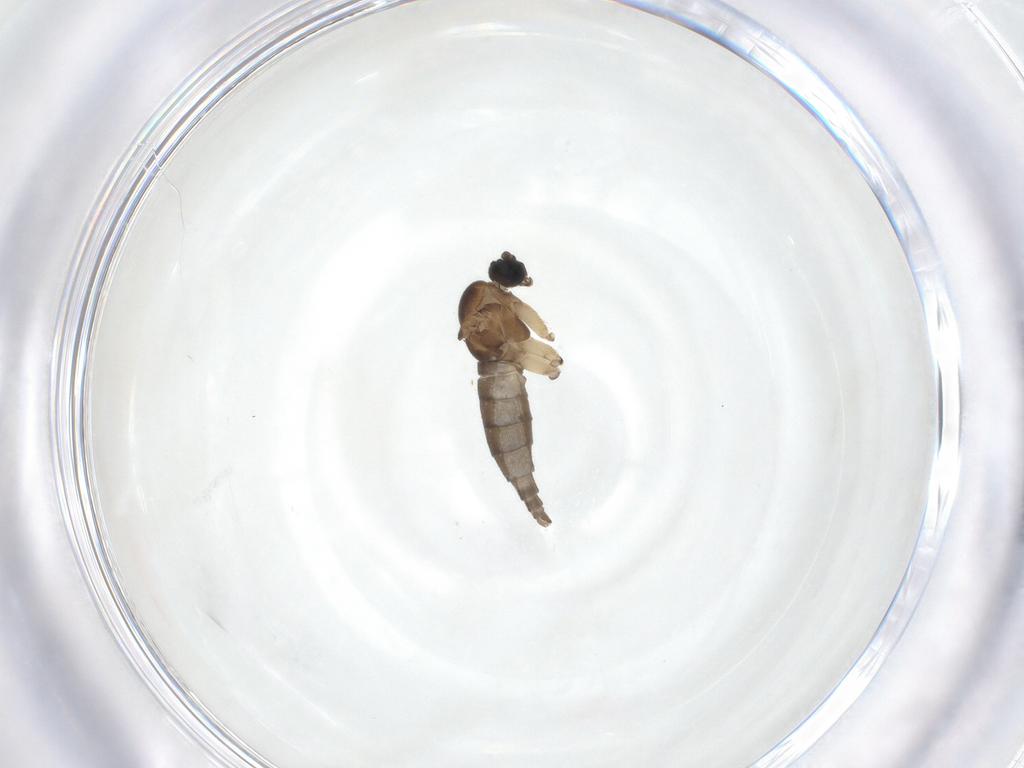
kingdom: Animalia
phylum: Arthropoda
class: Insecta
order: Diptera
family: Sciaridae
